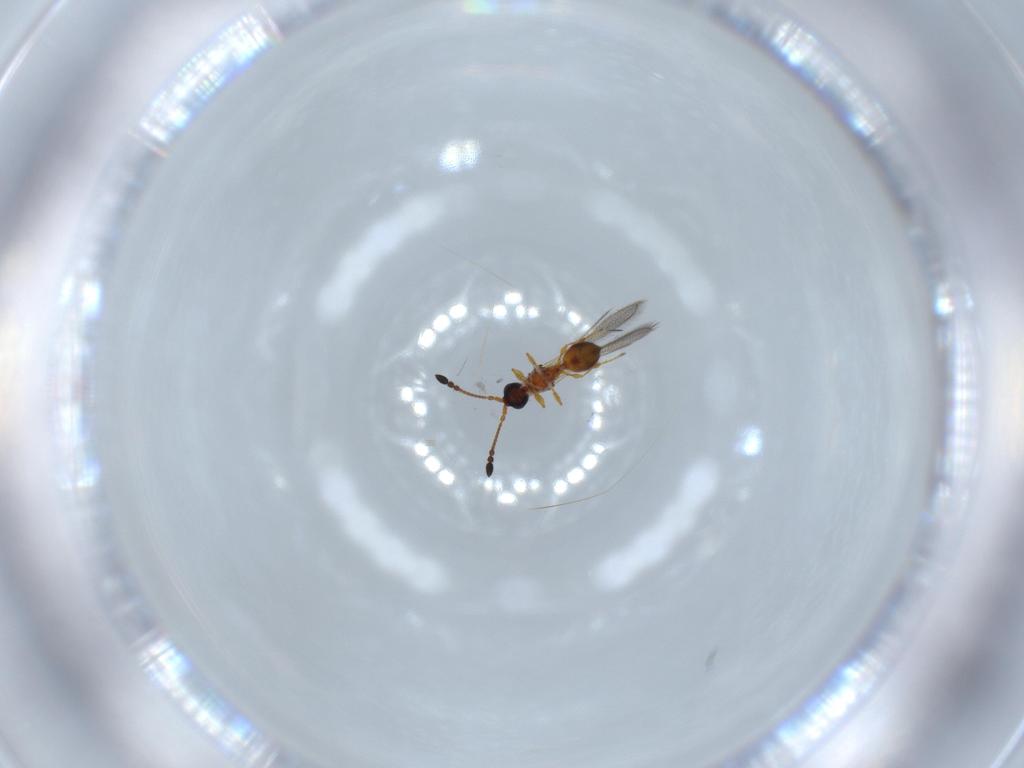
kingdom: Animalia
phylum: Arthropoda
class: Insecta
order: Hymenoptera
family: Diapriidae
